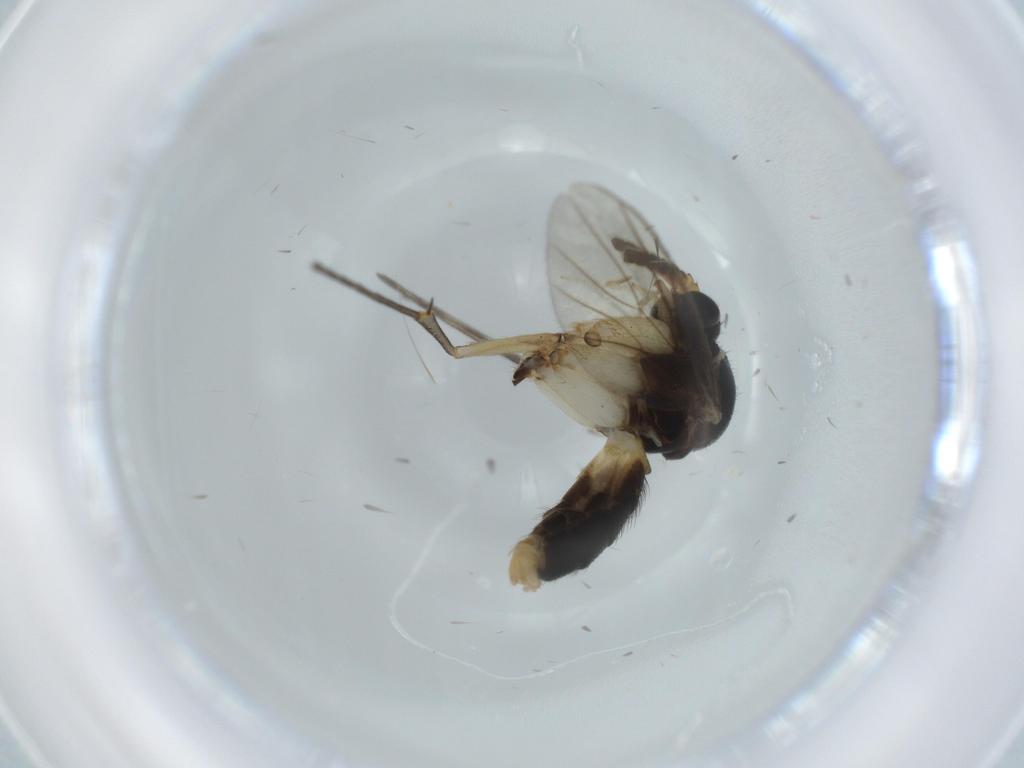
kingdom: Animalia
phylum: Arthropoda
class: Insecta
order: Diptera
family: Sciaridae
